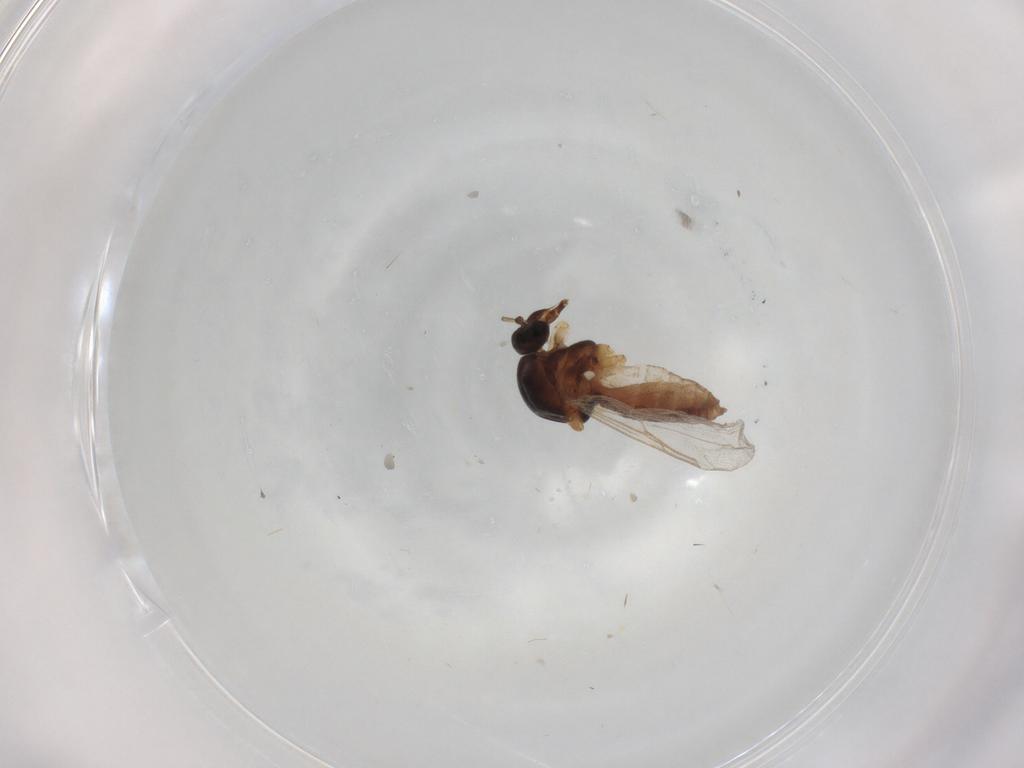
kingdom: Animalia
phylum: Arthropoda
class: Insecta
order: Diptera
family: Ceratopogonidae
